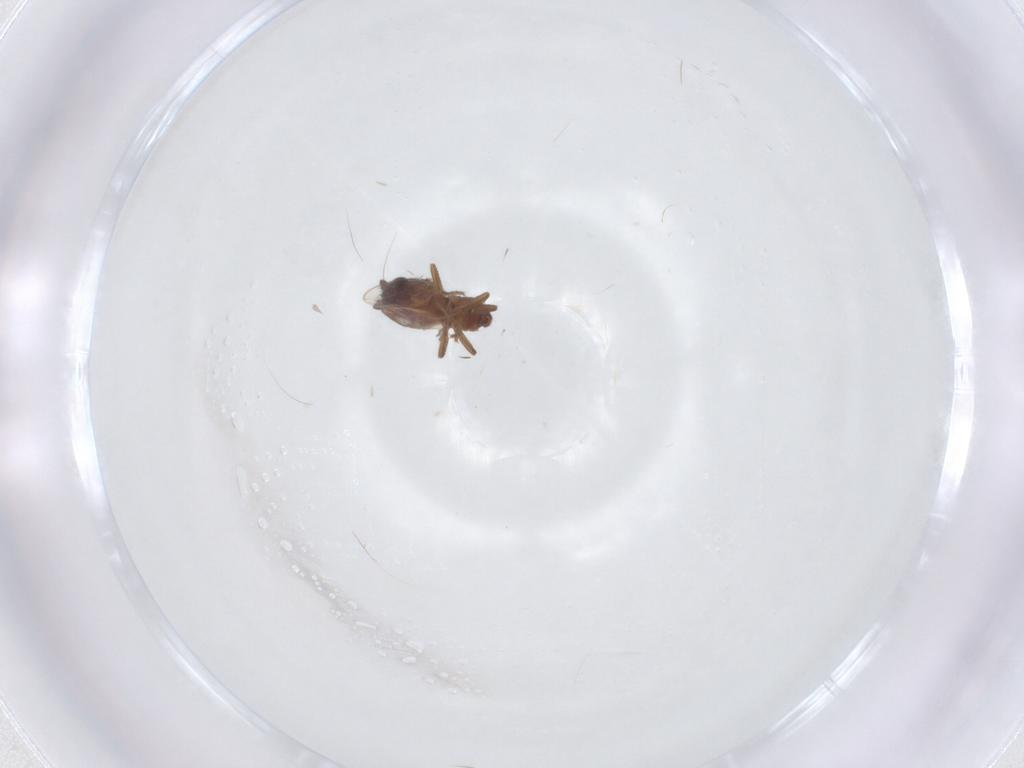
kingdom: Animalia
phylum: Arthropoda
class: Insecta
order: Diptera
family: Sphaeroceridae
